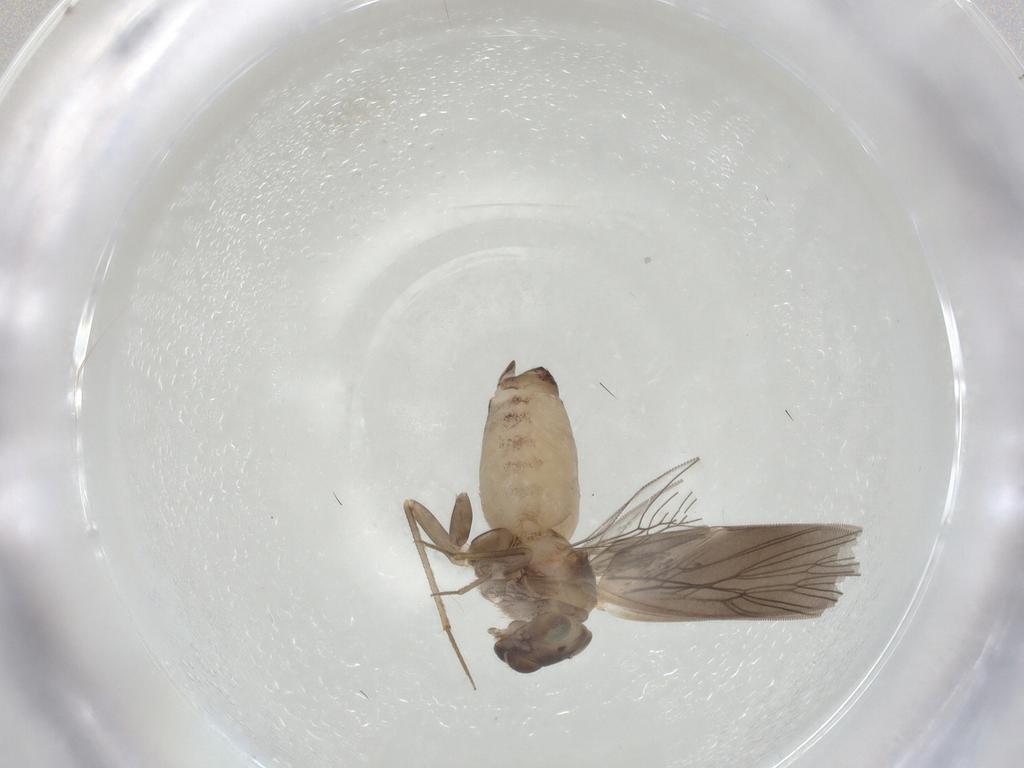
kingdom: Animalia
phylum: Arthropoda
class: Insecta
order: Psocodea
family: Lepidopsocidae
